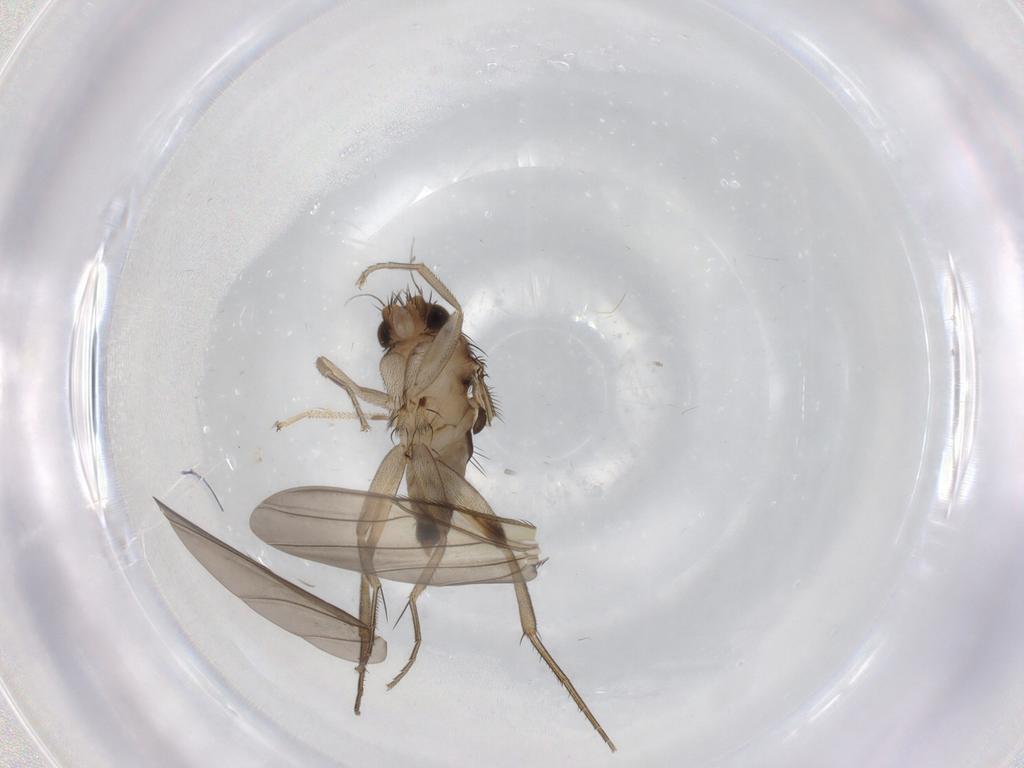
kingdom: Animalia
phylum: Arthropoda
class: Insecta
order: Diptera
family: Phoridae
